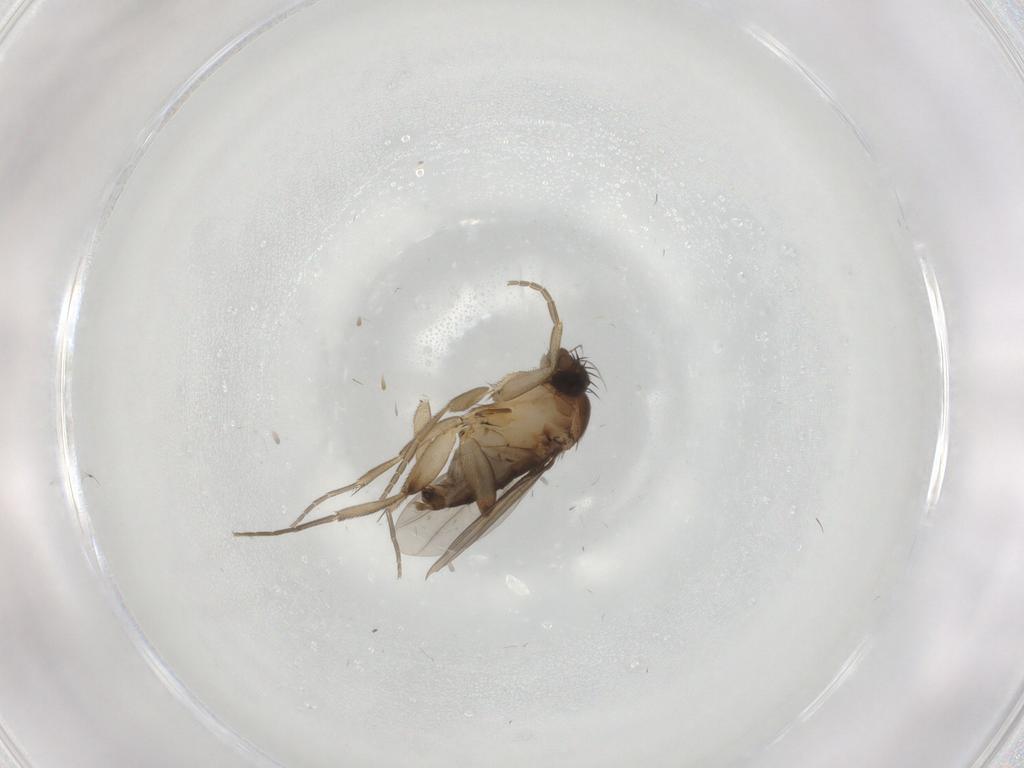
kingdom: Animalia
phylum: Arthropoda
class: Insecta
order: Diptera
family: Phoridae
